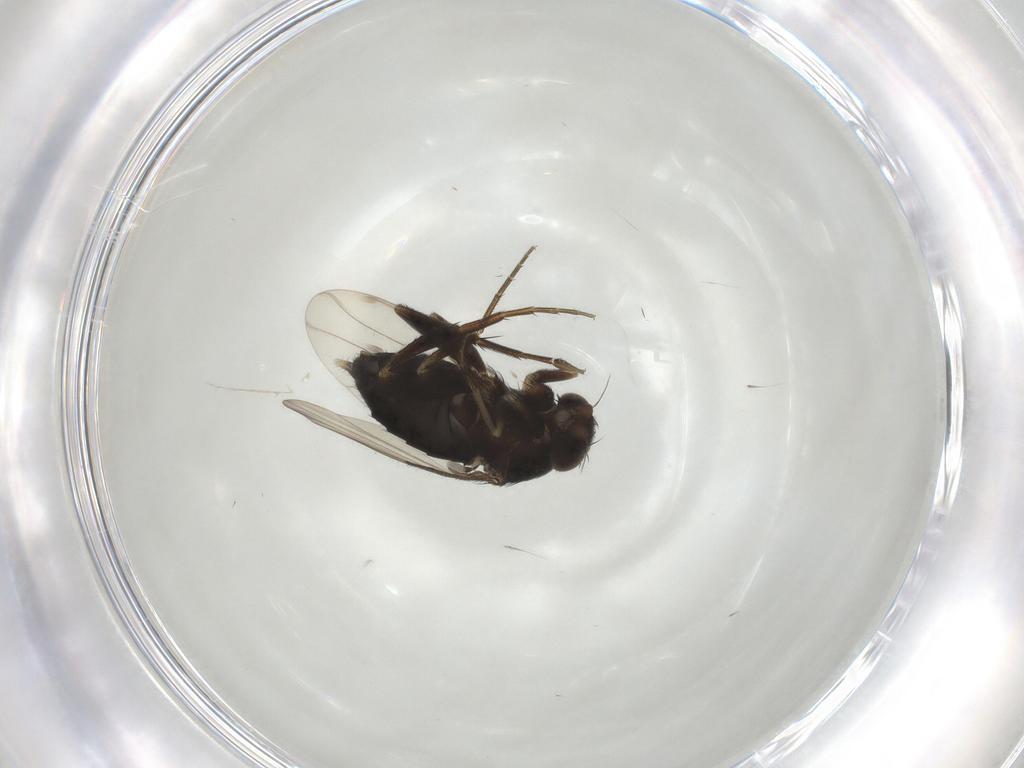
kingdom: Animalia
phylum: Arthropoda
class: Insecta
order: Diptera
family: Phoridae
